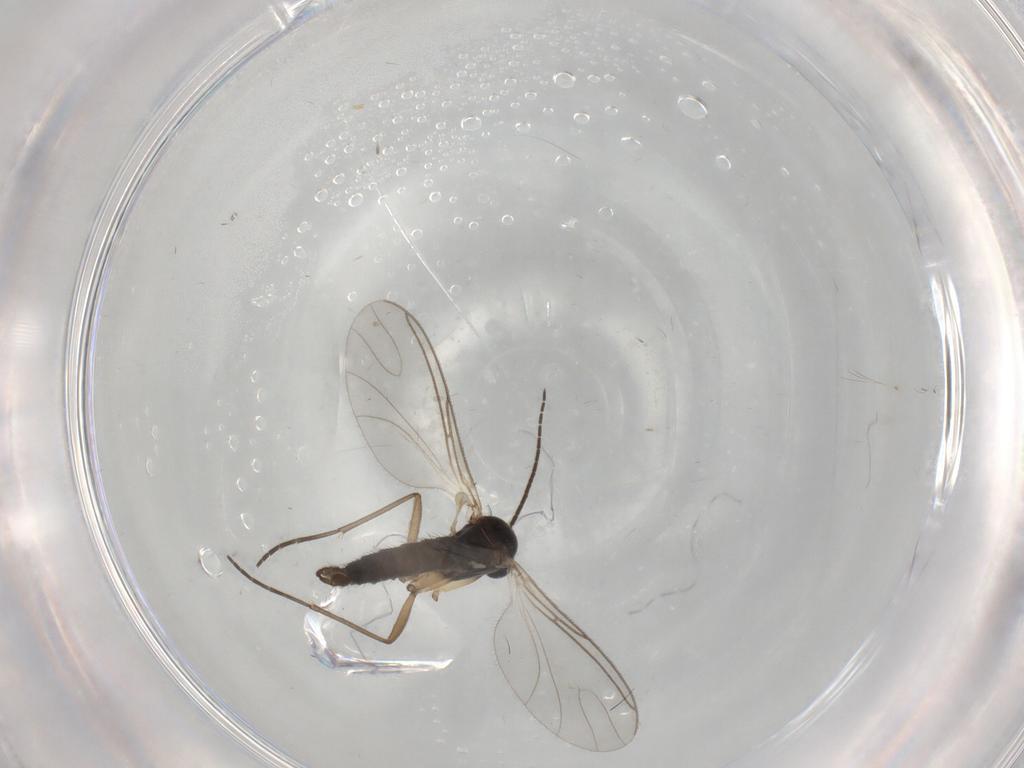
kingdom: Animalia
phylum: Arthropoda
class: Insecta
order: Diptera
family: Sciaridae
